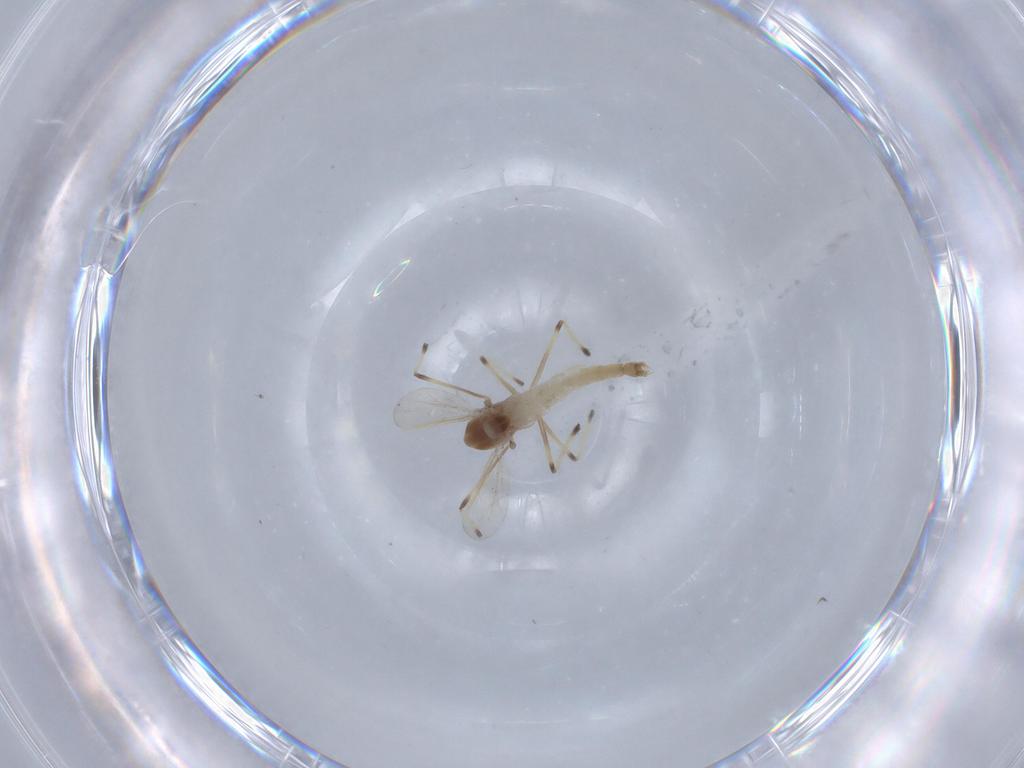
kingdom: Animalia
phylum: Arthropoda
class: Insecta
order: Diptera
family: Chironomidae
